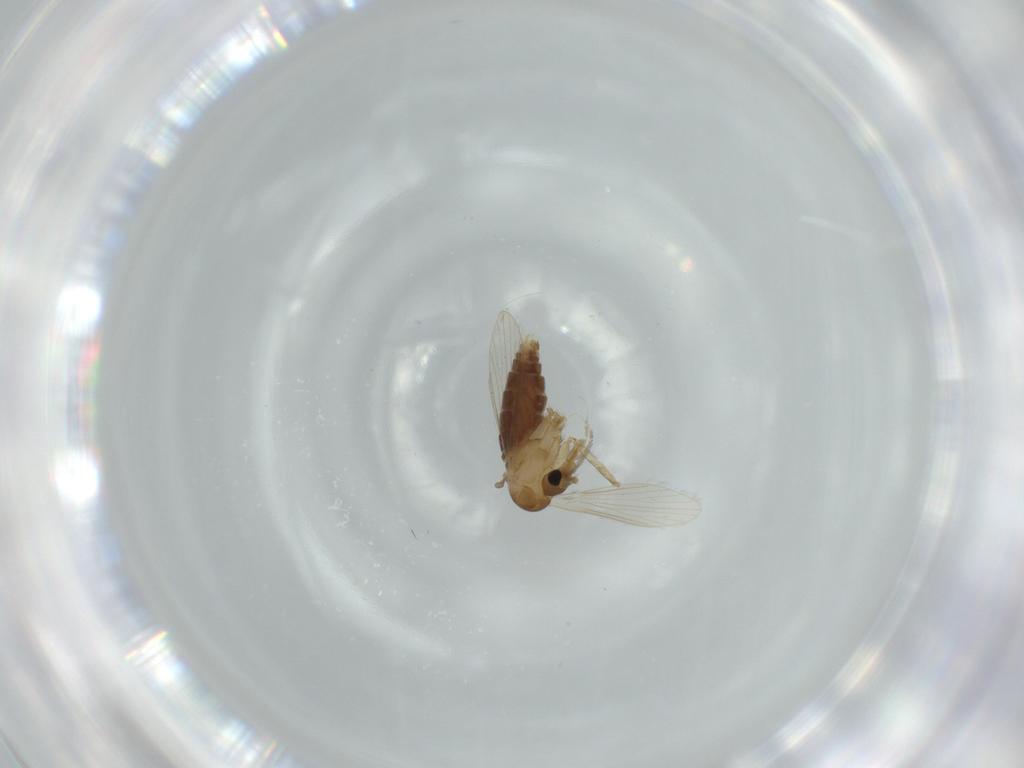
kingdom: Animalia
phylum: Arthropoda
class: Insecta
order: Diptera
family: Psychodidae
